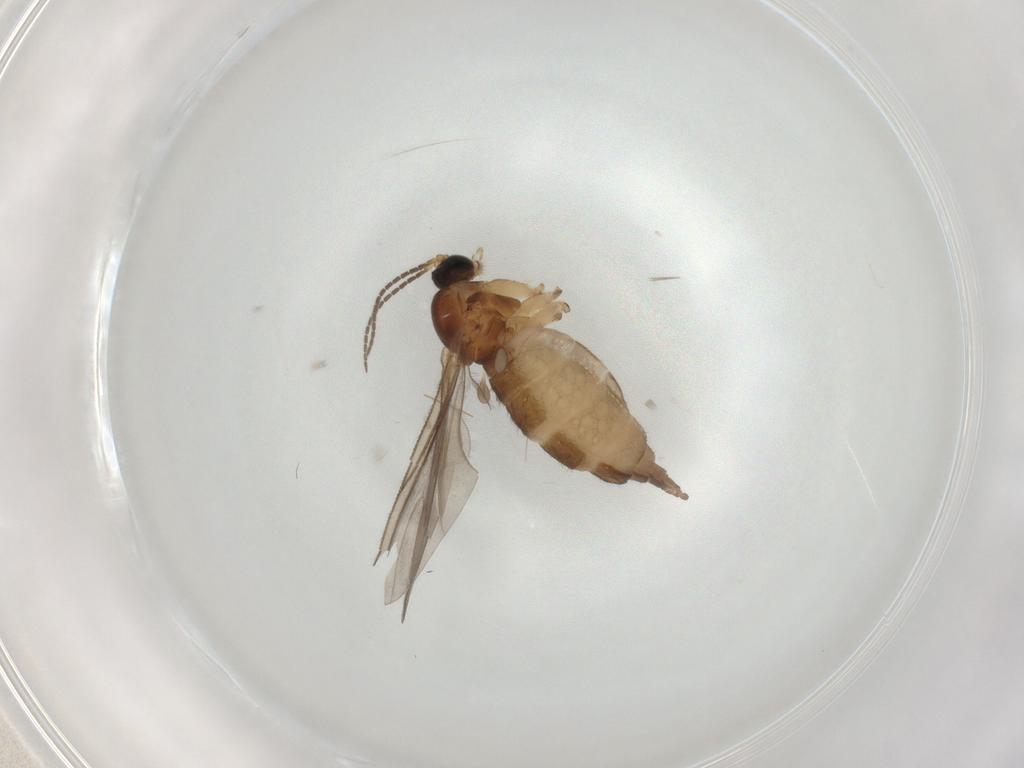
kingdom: Animalia
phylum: Arthropoda
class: Insecta
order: Diptera
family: Sciaridae
